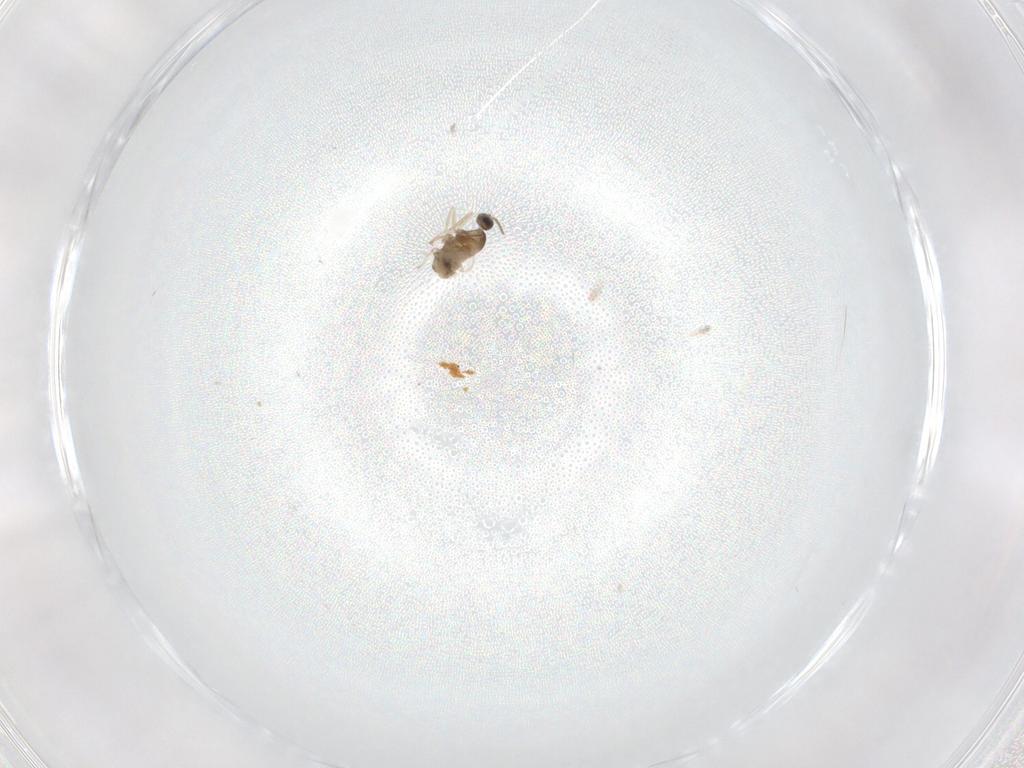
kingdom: Animalia
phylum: Arthropoda
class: Insecta
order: Diptera
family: Cecidomyiidae
